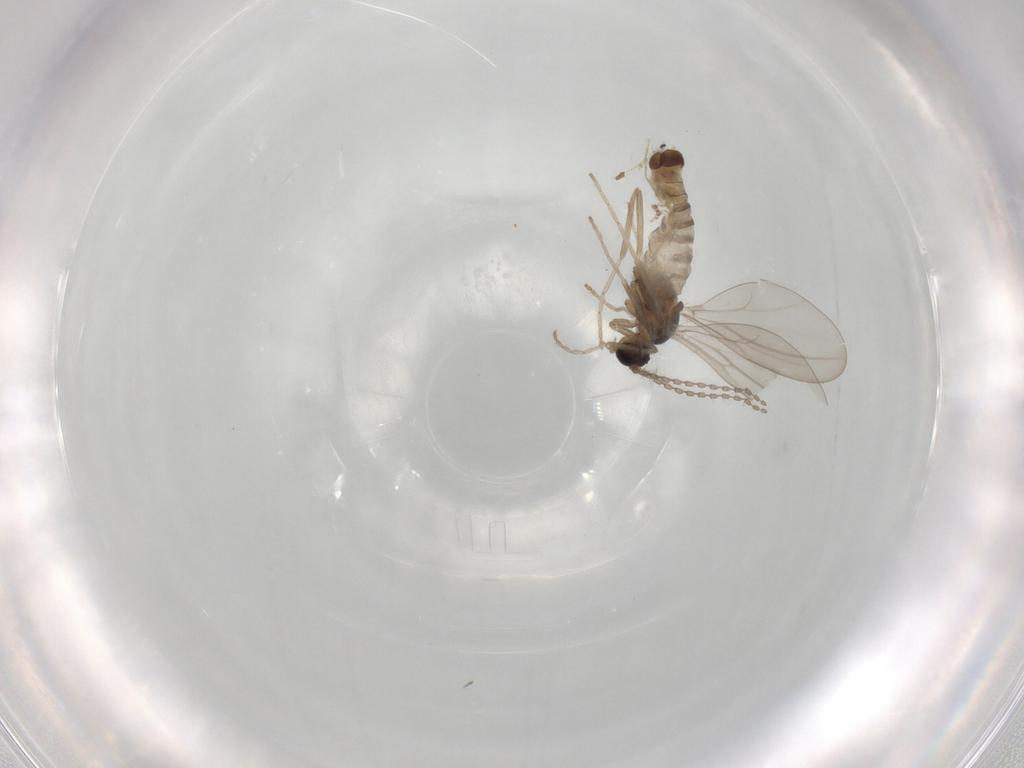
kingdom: Animalia
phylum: Arthropoda
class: Insecta
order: Diptera
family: Cecidomyiidae
